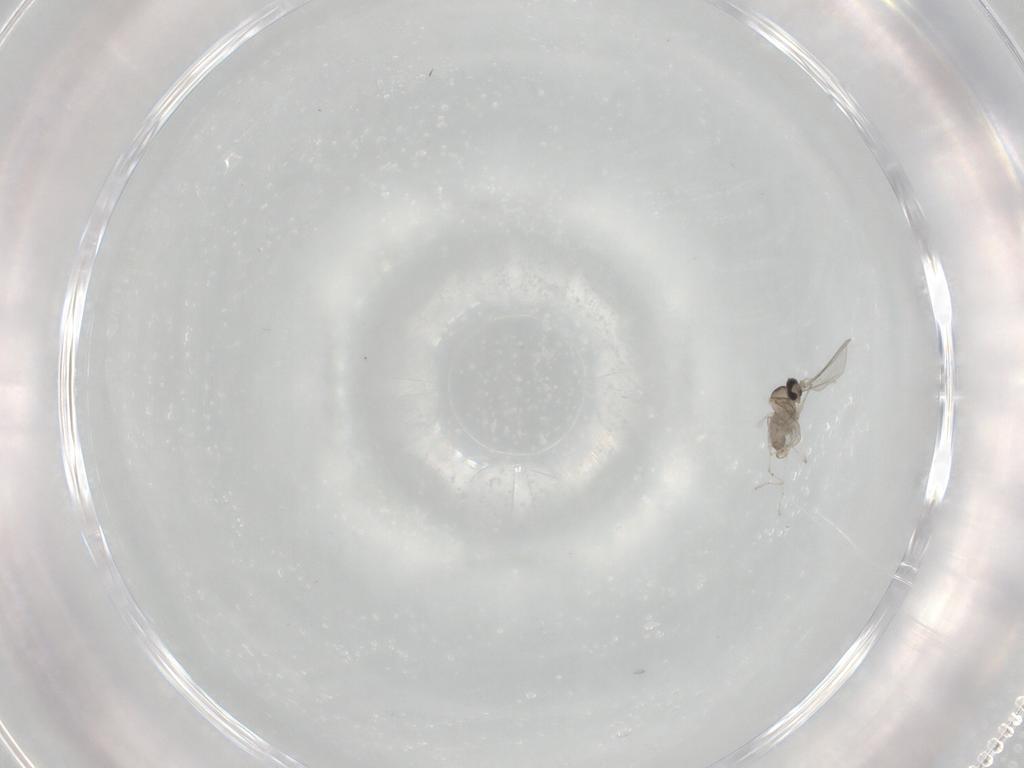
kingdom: Animalia
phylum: Arthropoda
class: Insecta
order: Diptera
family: Cecidomyiidae
